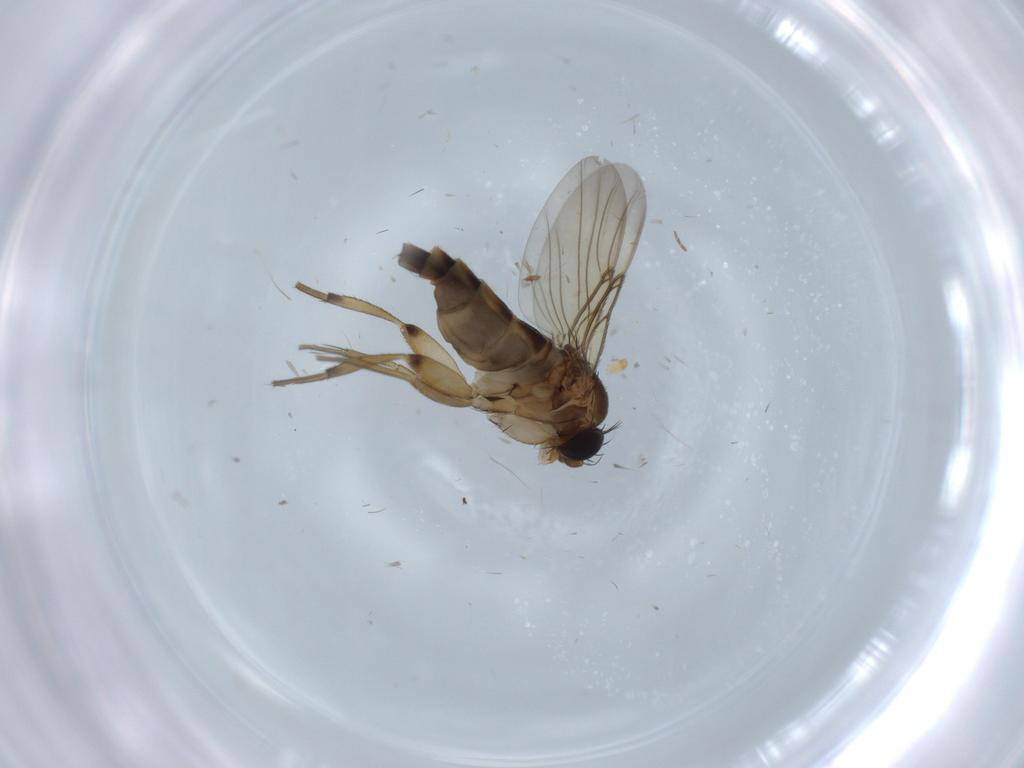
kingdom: Animalia
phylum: Arthropoda
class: Insecta
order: Diptera
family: Phoridae
